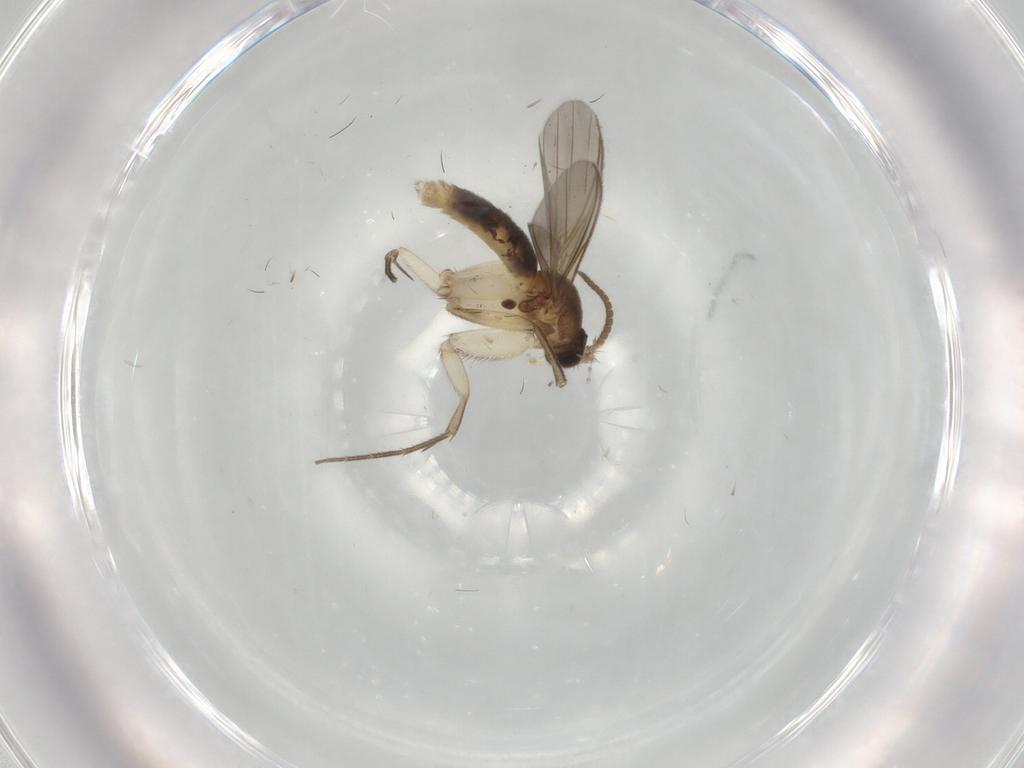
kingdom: Animalia
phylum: Arthropoda
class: Insecta
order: Diptera
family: Mycetophilidae
